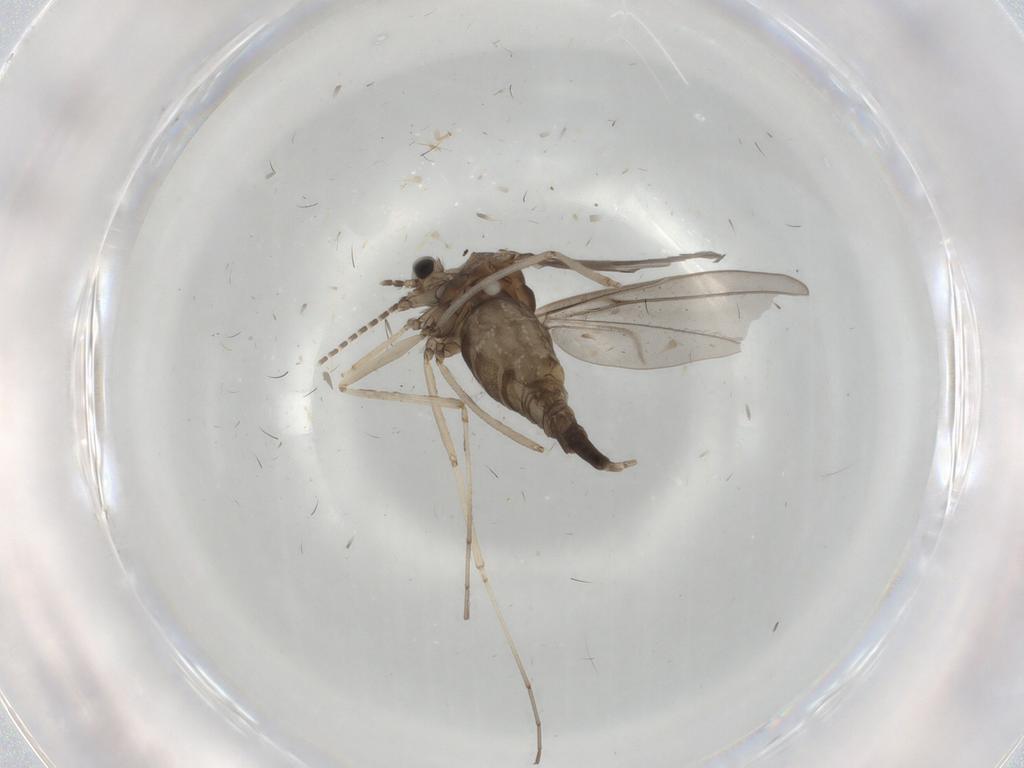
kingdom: Animalia
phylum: Arthropoda
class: Insecta
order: Diptera
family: Cecidomyiidae
